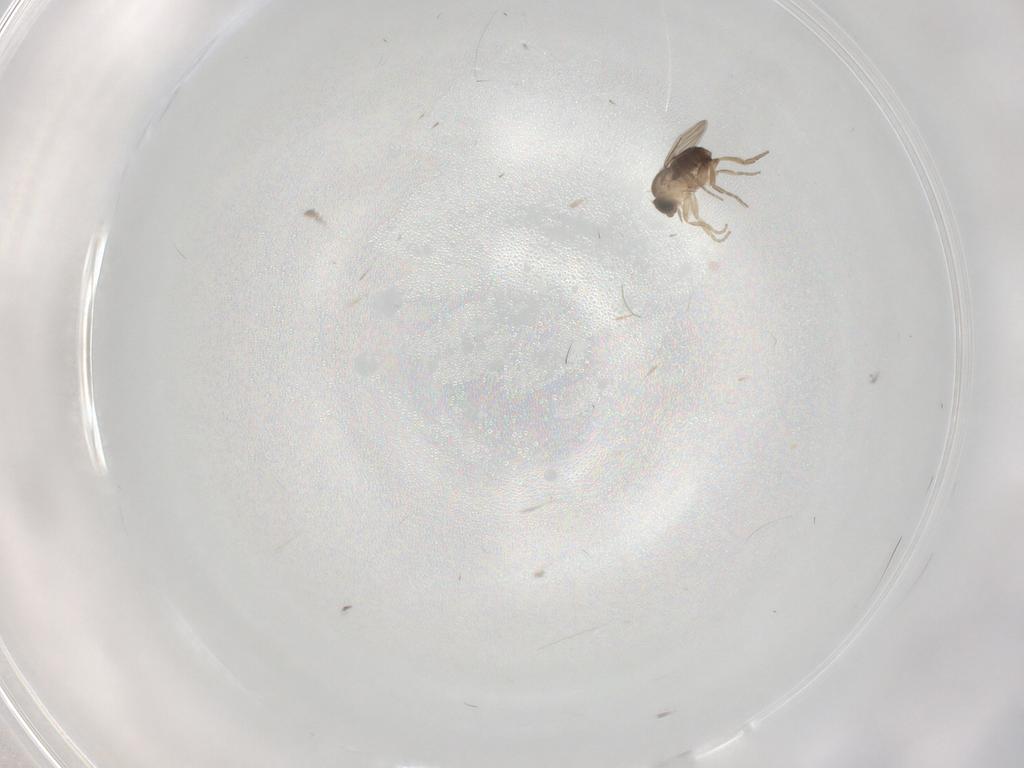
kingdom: Animalia
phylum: Arthropoda
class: Insecta
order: Diptera
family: Phoridae
